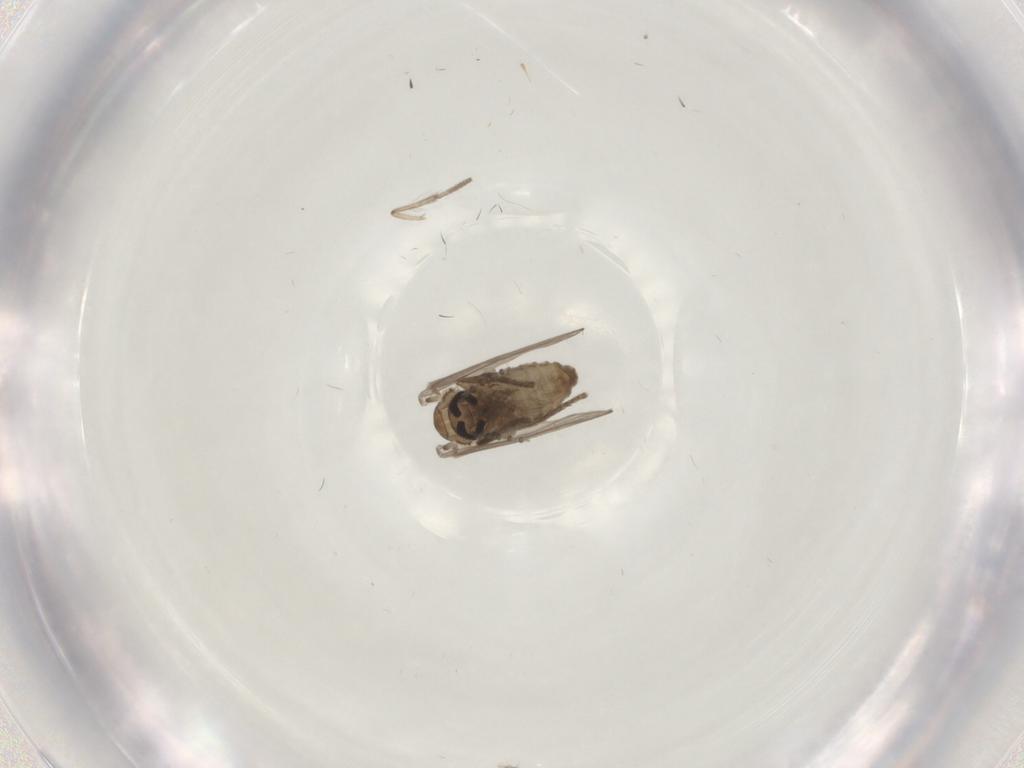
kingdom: Animalia
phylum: Arthropoda
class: Insecta
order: Diptera
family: Psychodidae
